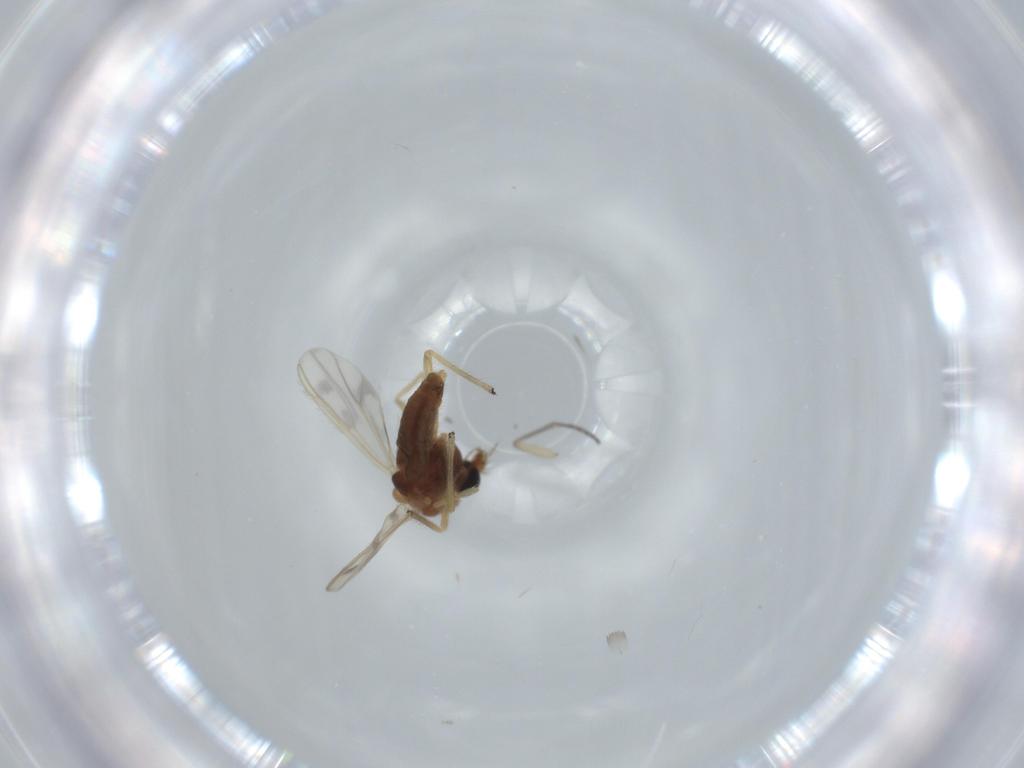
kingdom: Animalia
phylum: Arthropoda
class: Insecta
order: Diptera
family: Chironomidae
